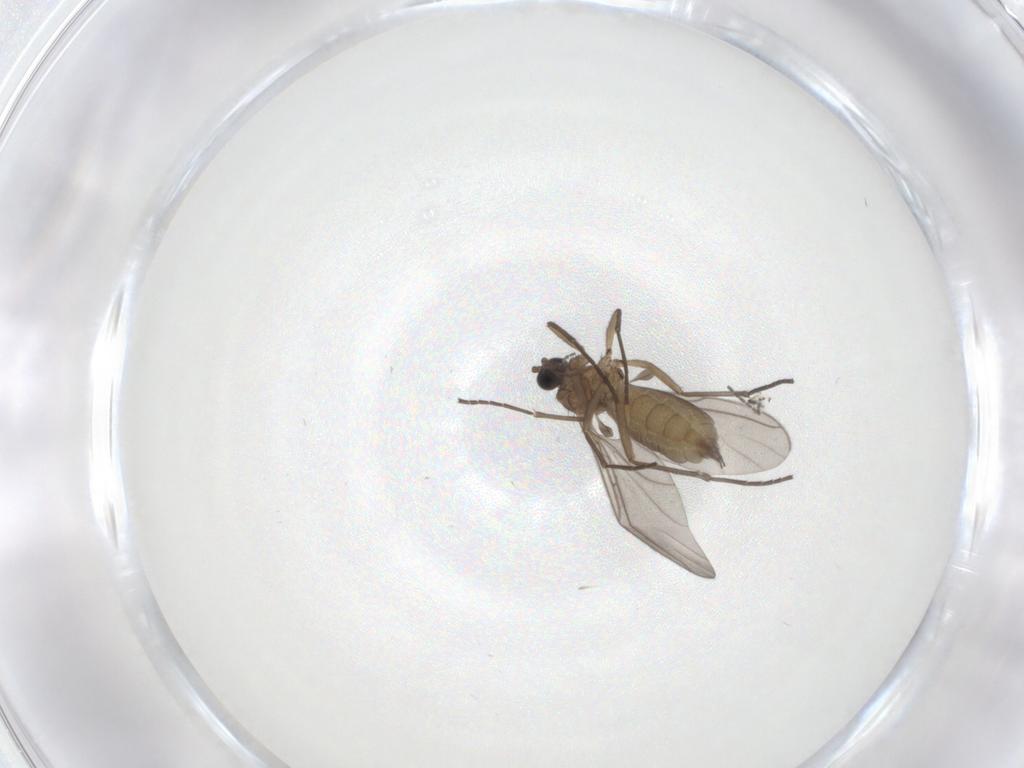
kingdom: Animalia
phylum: Arthropoda
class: Insecta
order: Diptera
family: Sciaridae
